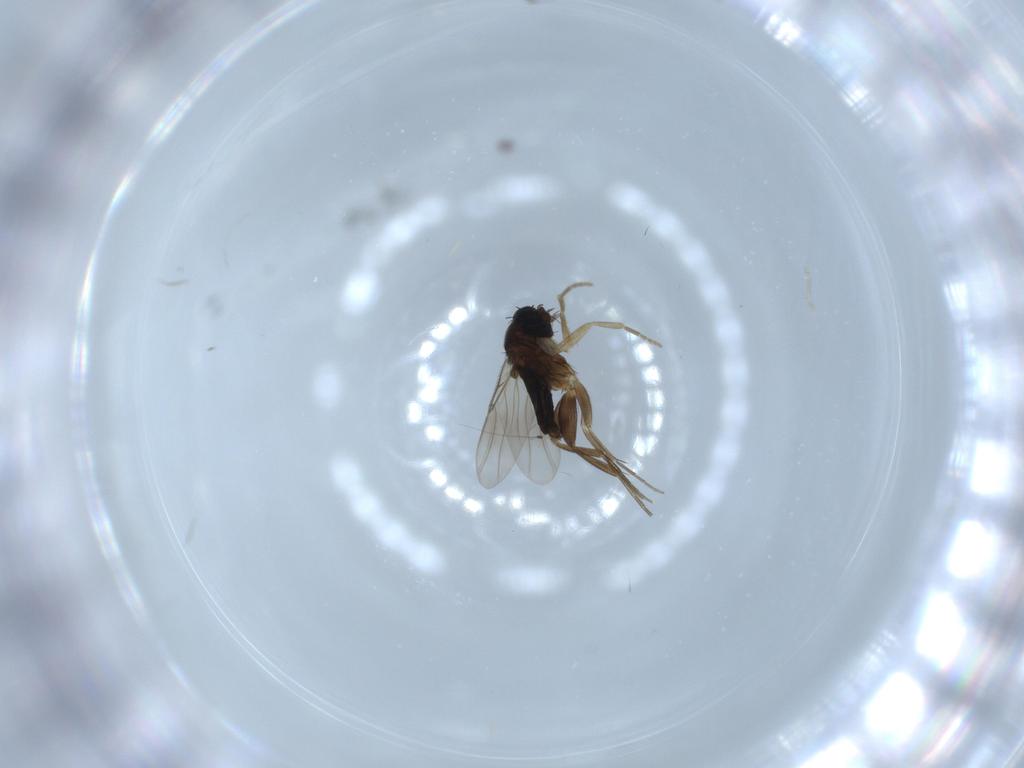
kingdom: Animalia
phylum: Arthropoda
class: Insecta
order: Diptera
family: Phoridae
